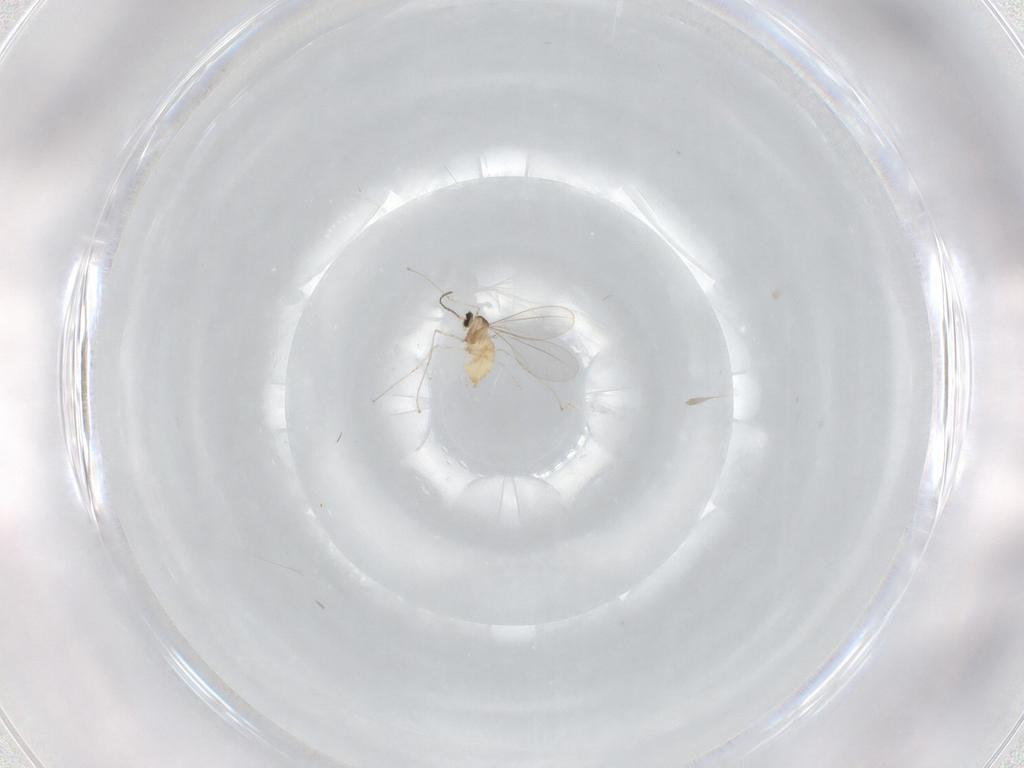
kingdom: Animalia
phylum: Arthropoda
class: Insecta
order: Diptera
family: Cecidomyiidae
